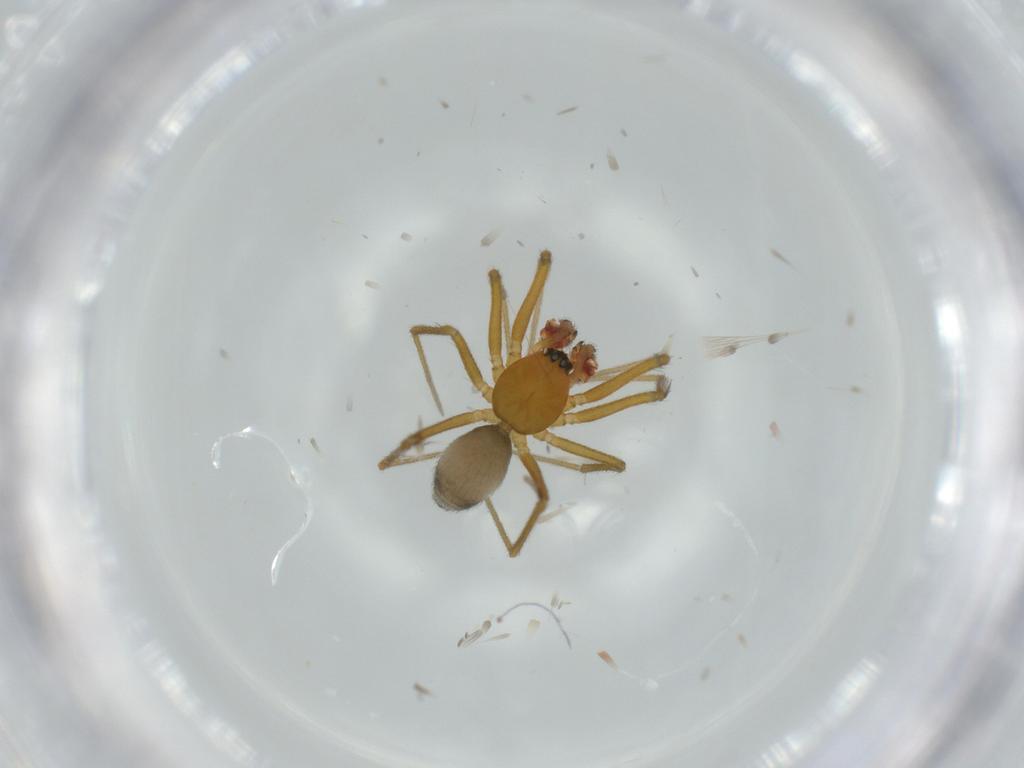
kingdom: Animalia
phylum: Arthropoda
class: Arachnida
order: Araneae
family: Linyphiidae
